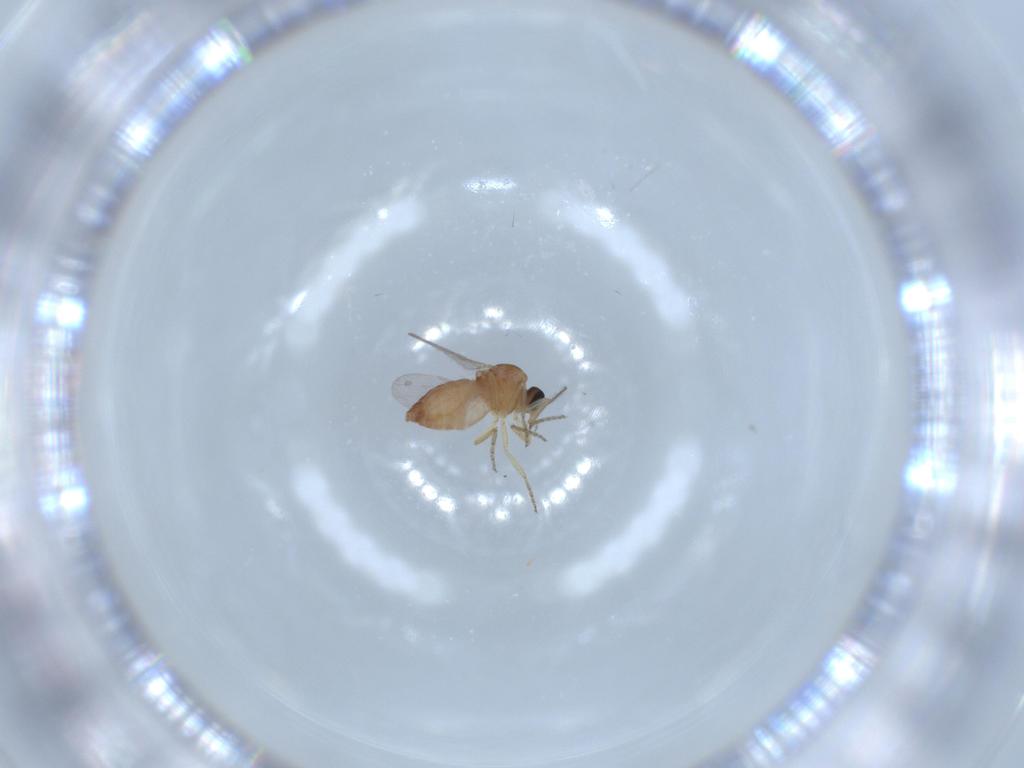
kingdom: Animalia
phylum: Arthropoda
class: Insecta
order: Diptera
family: Ceratopogonidae
